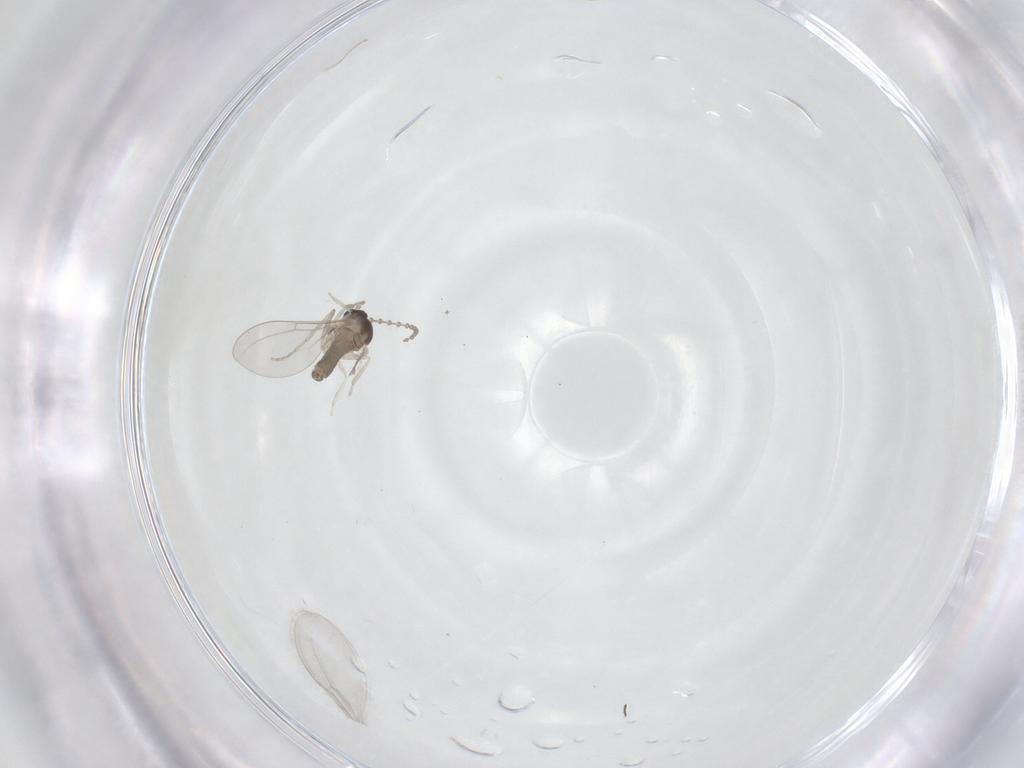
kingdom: Animalia
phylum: Arthropoda
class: Insecta
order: Diptera
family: Cecidomyiidae
